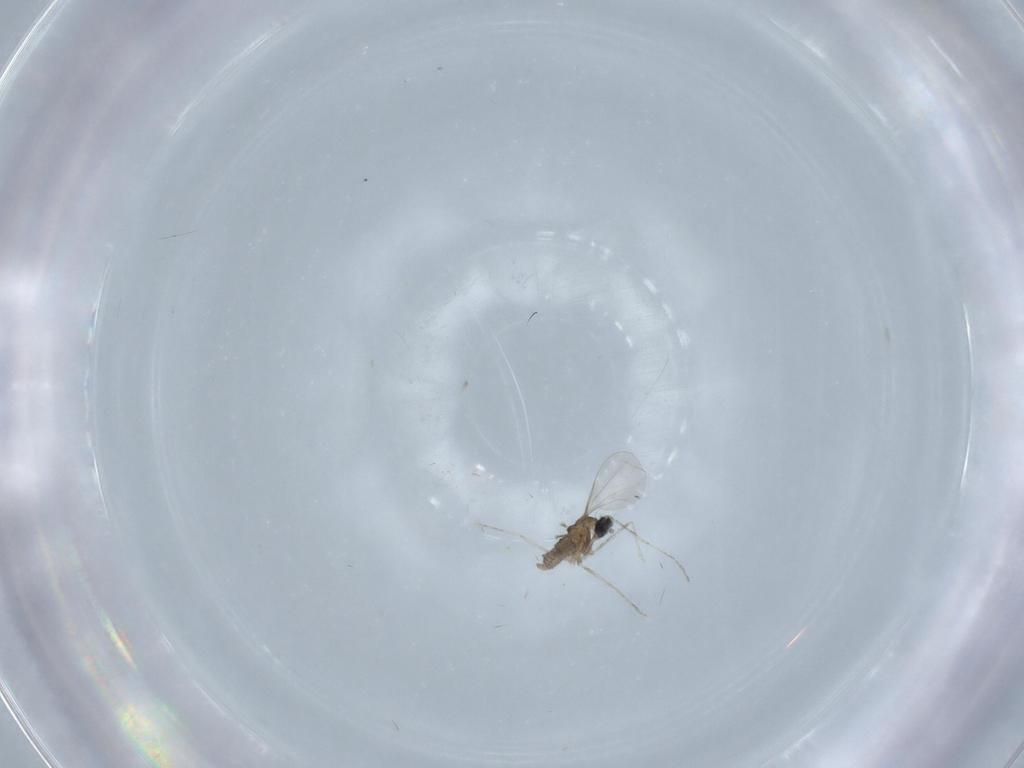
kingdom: Animalia
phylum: Arthropoda
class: Insecta
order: Diptera
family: Cecidomyiidae
